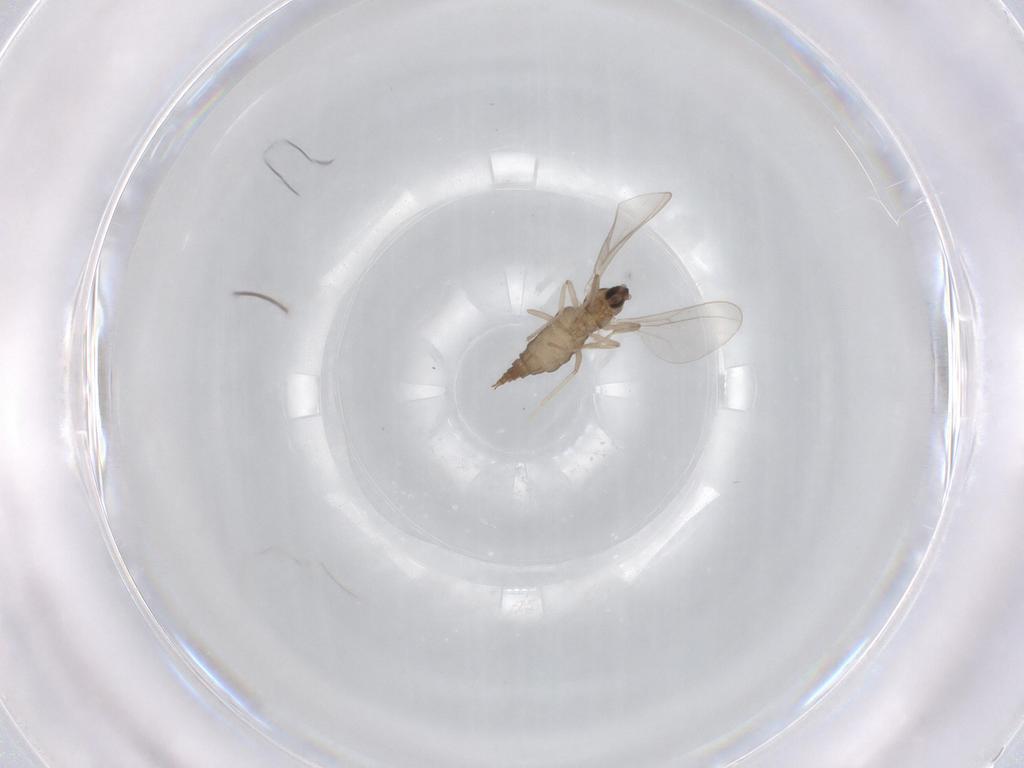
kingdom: Animalia
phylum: Arthropoda
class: Insecta
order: Diptera
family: Cecidomyiidae
